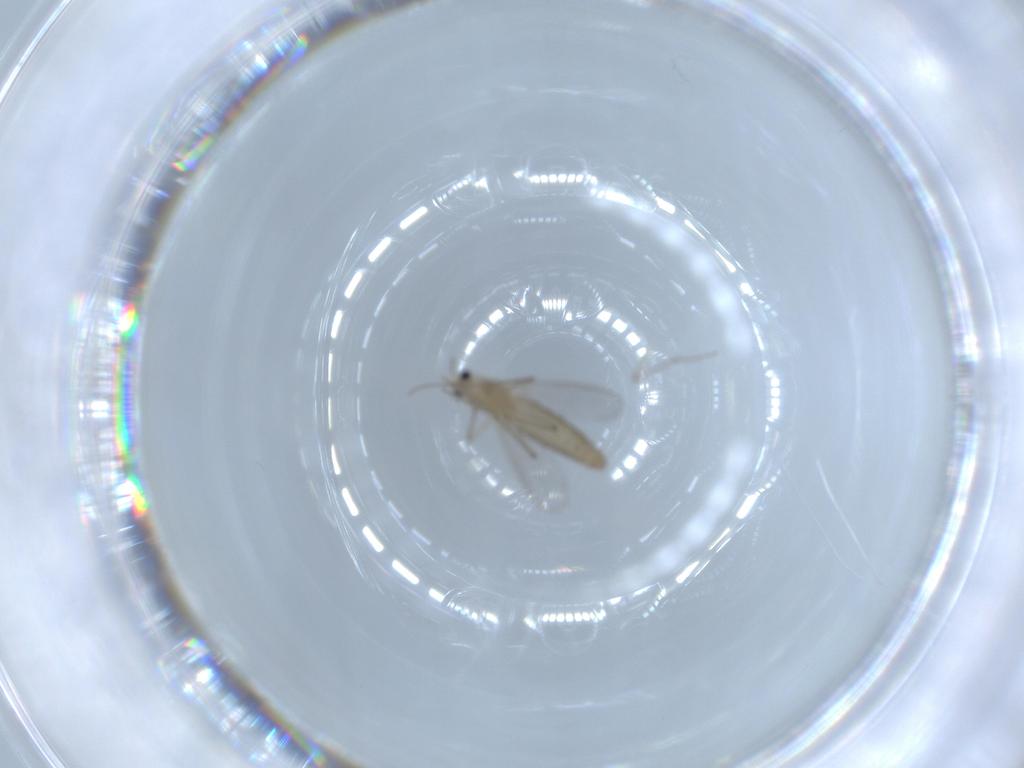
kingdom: Animalia
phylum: Arthropoda
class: Insecta
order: Diptera
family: Chironomidae
